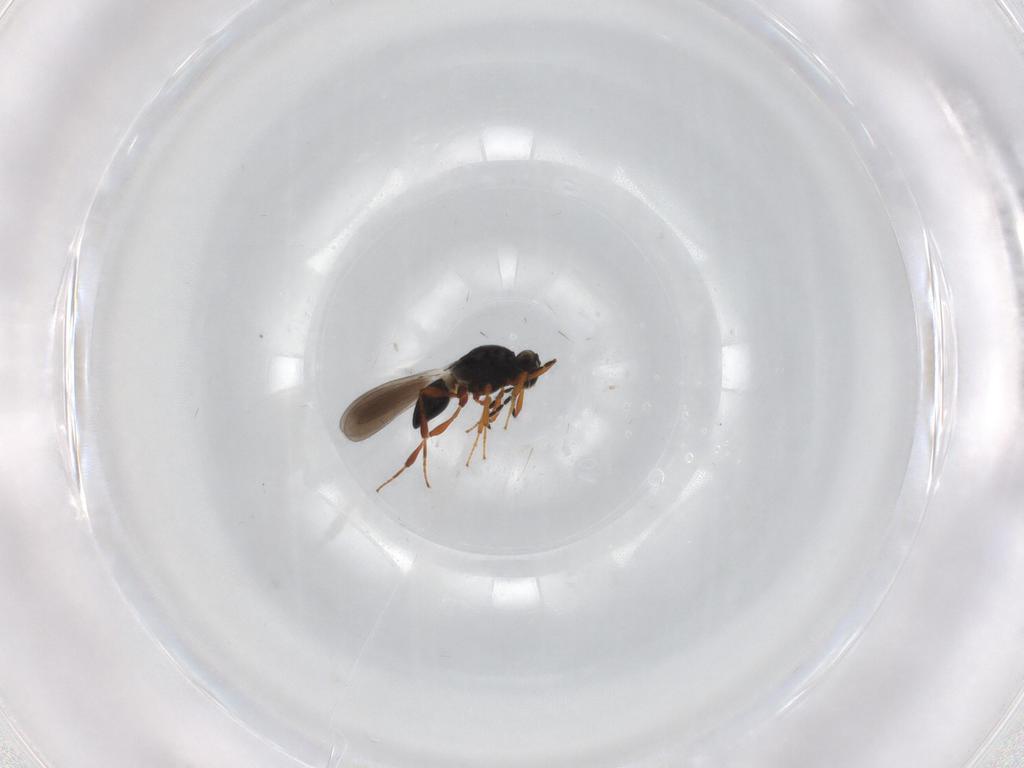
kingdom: Animalia
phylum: Arthropoda
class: Insecta
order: Hymenoptera
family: Platygastridae
